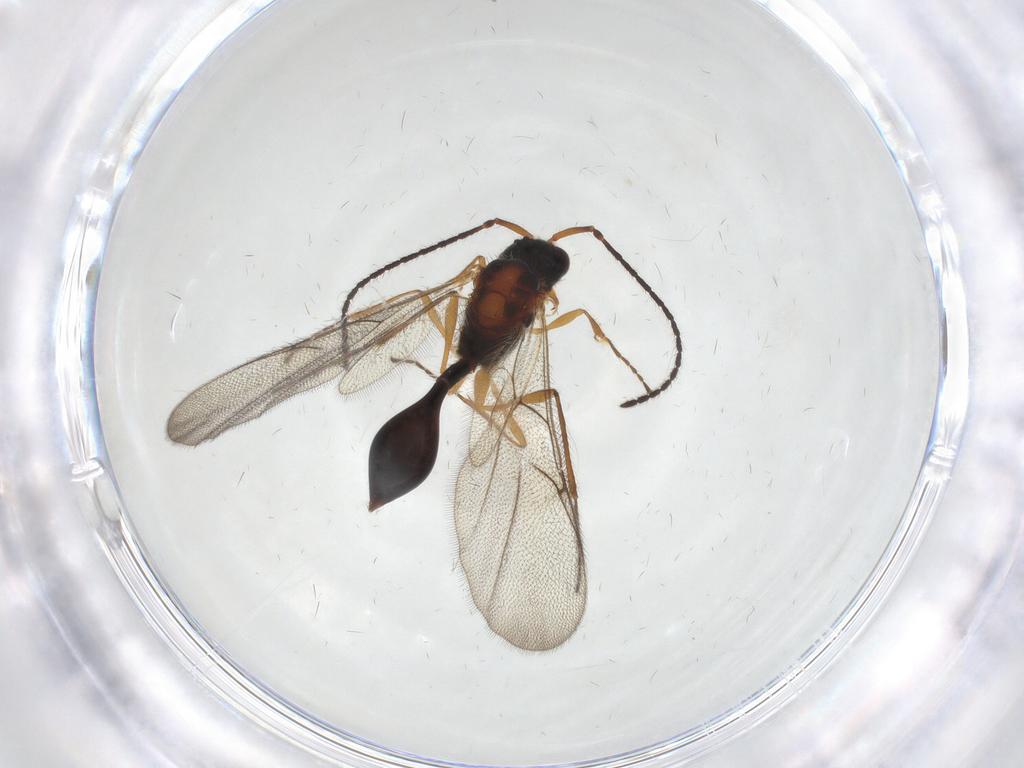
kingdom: Animalia
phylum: Arthropoda
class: Insecta
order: Hymenoptera
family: Diapriidae
